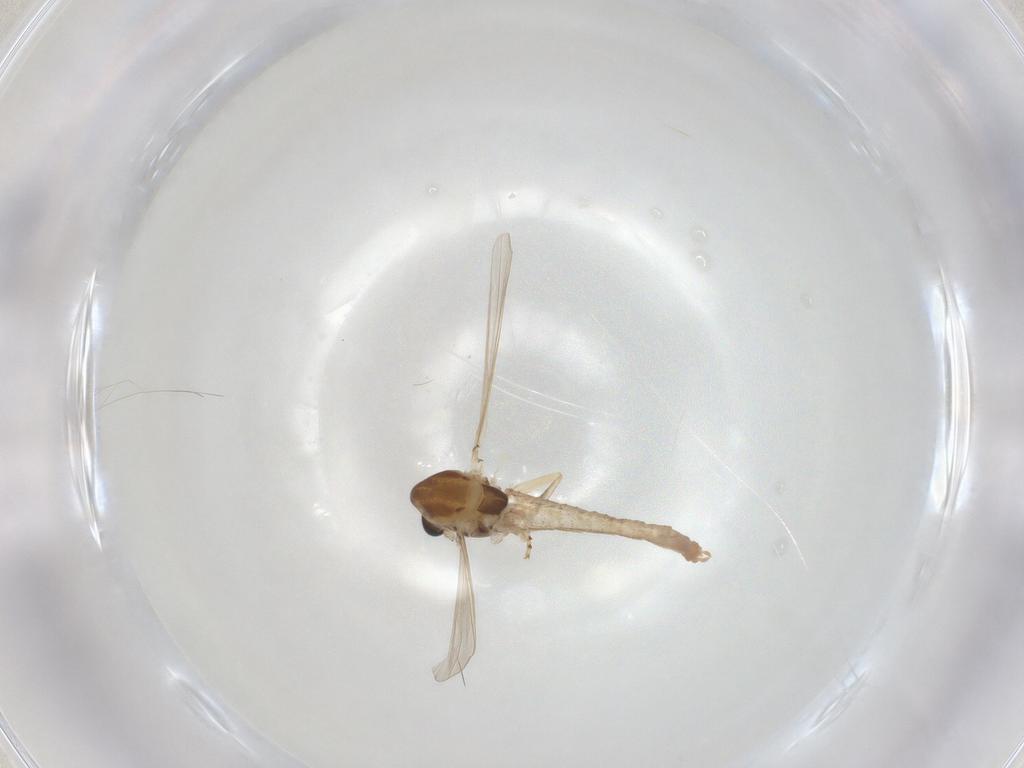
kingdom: Animalia
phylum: Arthropoda
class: Insecta
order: Diptera
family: Chironomidae
